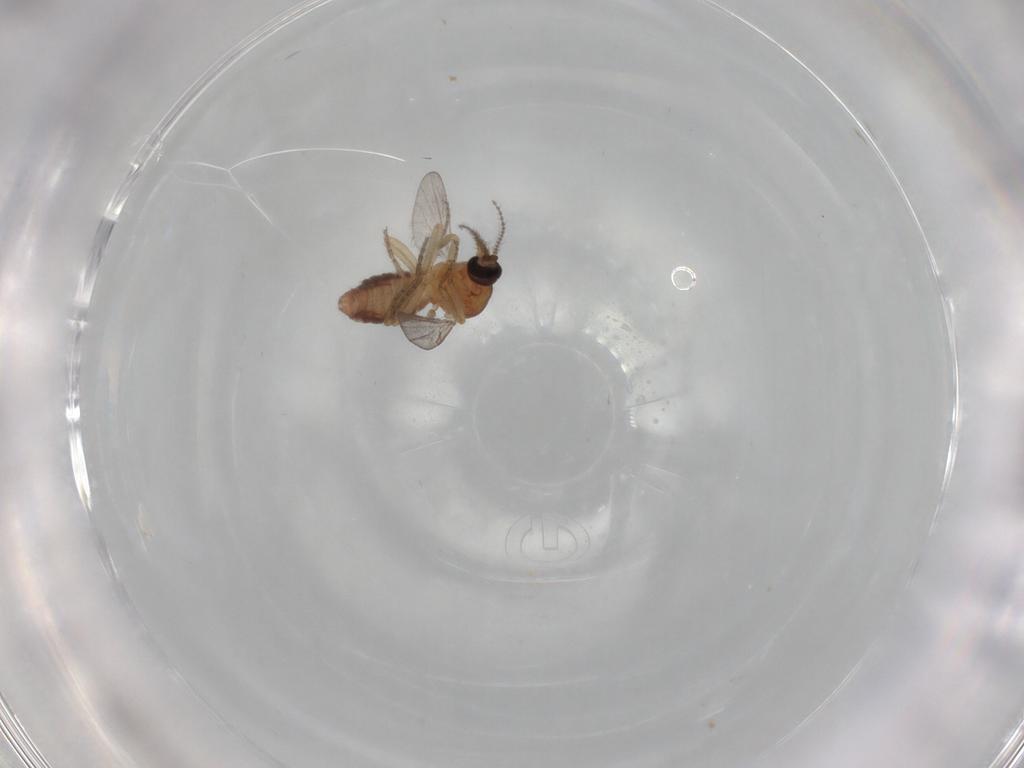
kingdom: Animalia
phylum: Arthropoda
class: Insecta
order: Diptera
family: Ceratopogonidae
